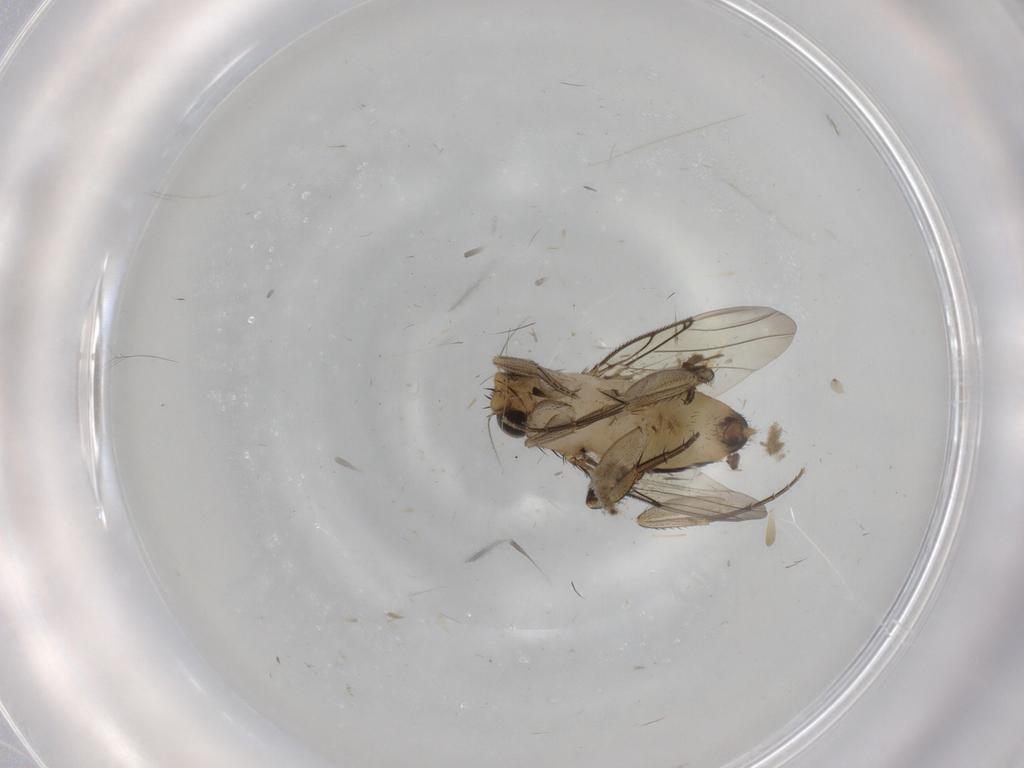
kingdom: Animalia
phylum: Arthropoda
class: Insecta
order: Diptera
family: Phoridae
